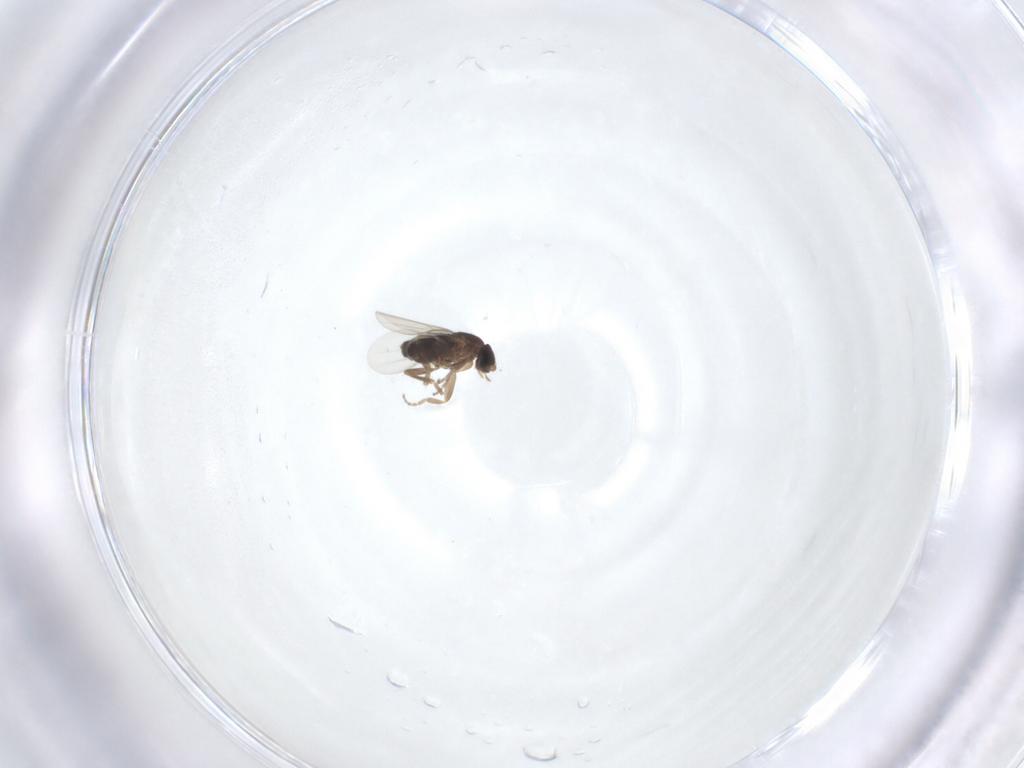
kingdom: Animalia
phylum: Arthropoda
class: Insecta
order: Diptera
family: Phoridae
